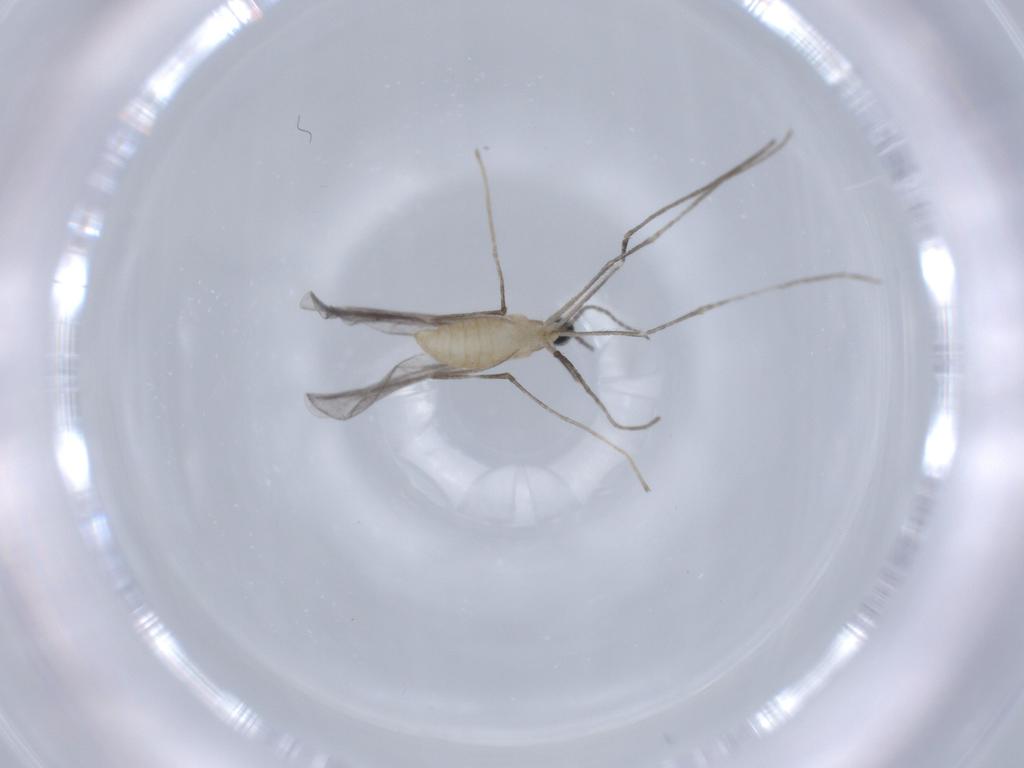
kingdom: Animalia
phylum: Arthropoda
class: Insecta
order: Diptera
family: Cecidomyiidae
